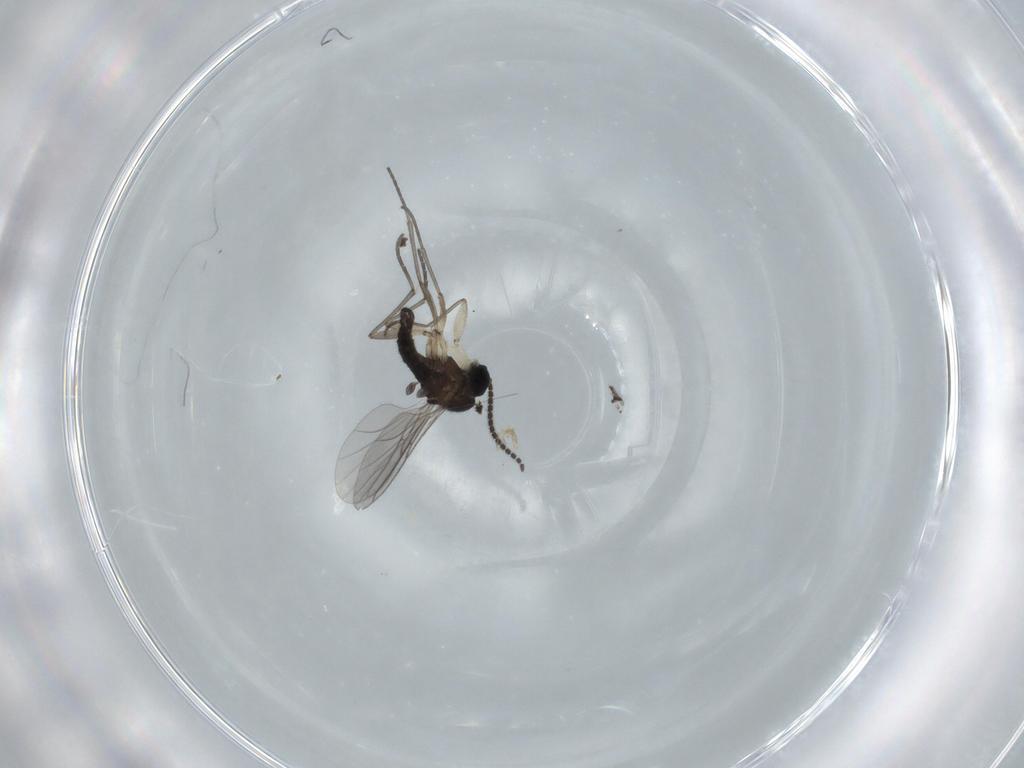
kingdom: Animalia
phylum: Arthropoda
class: Insecta
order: Diptera
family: Sciaridae
